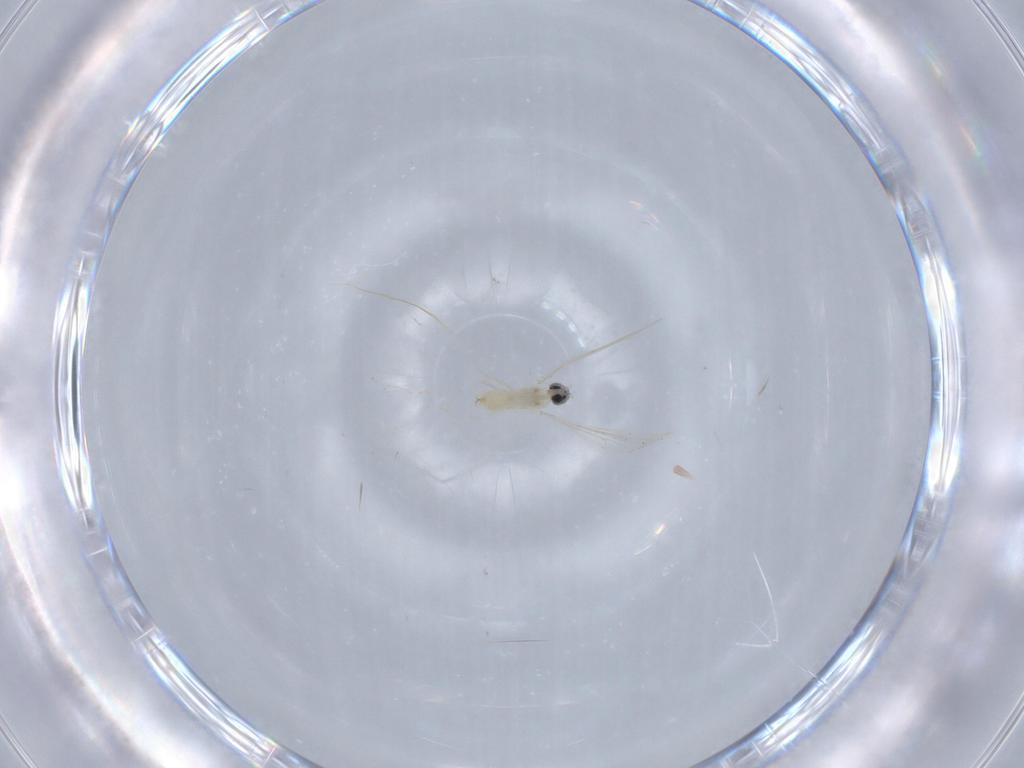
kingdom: Animalia
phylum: Arthropoda
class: Insecta
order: Diptera
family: Cecidomyiidae
